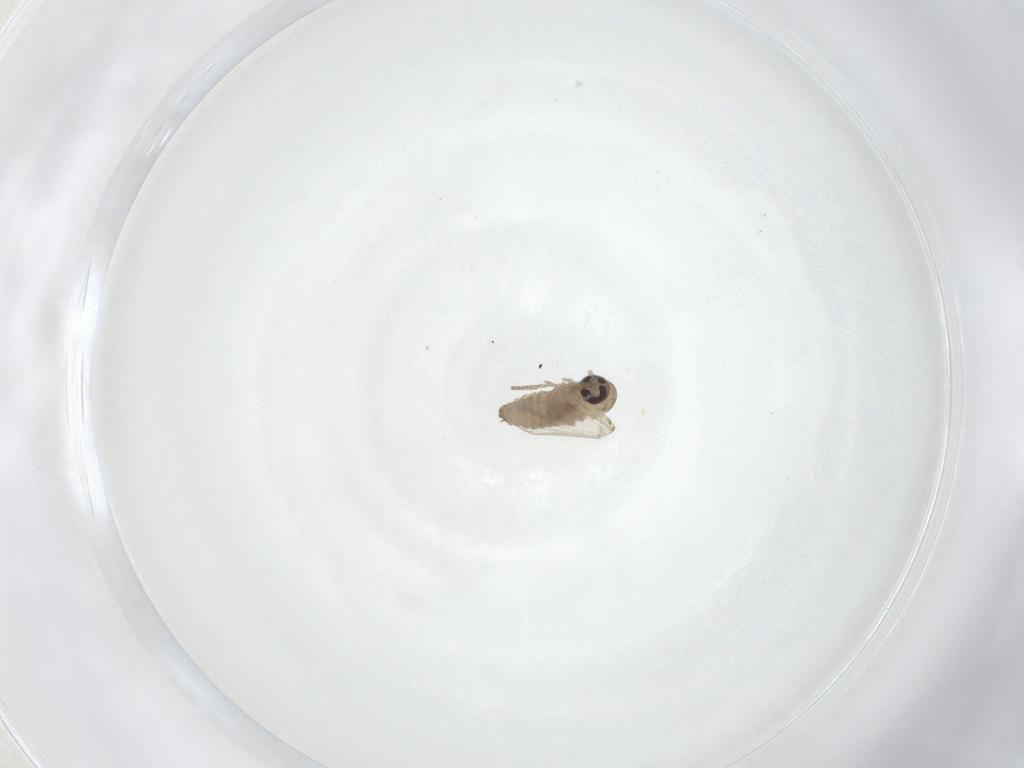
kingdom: Animalia
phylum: Arthropoda
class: Insecta
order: Diptera
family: Psychodidae
